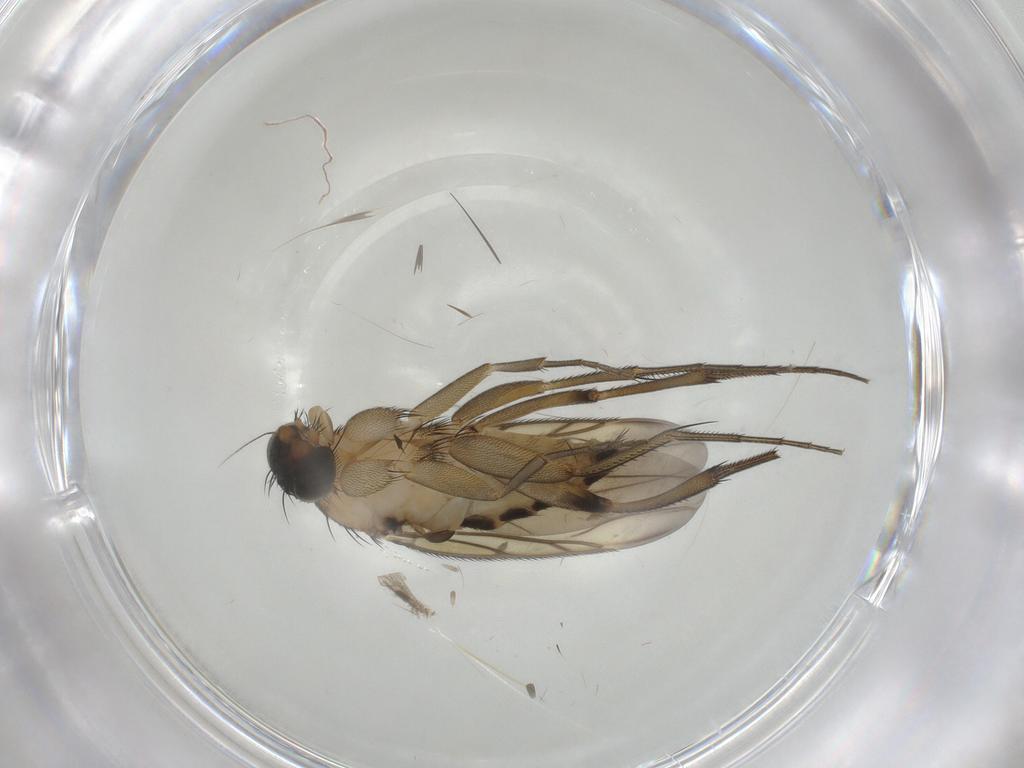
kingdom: Animalia
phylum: Arthropoda
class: Insecta
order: Diptera
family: Phoridae
